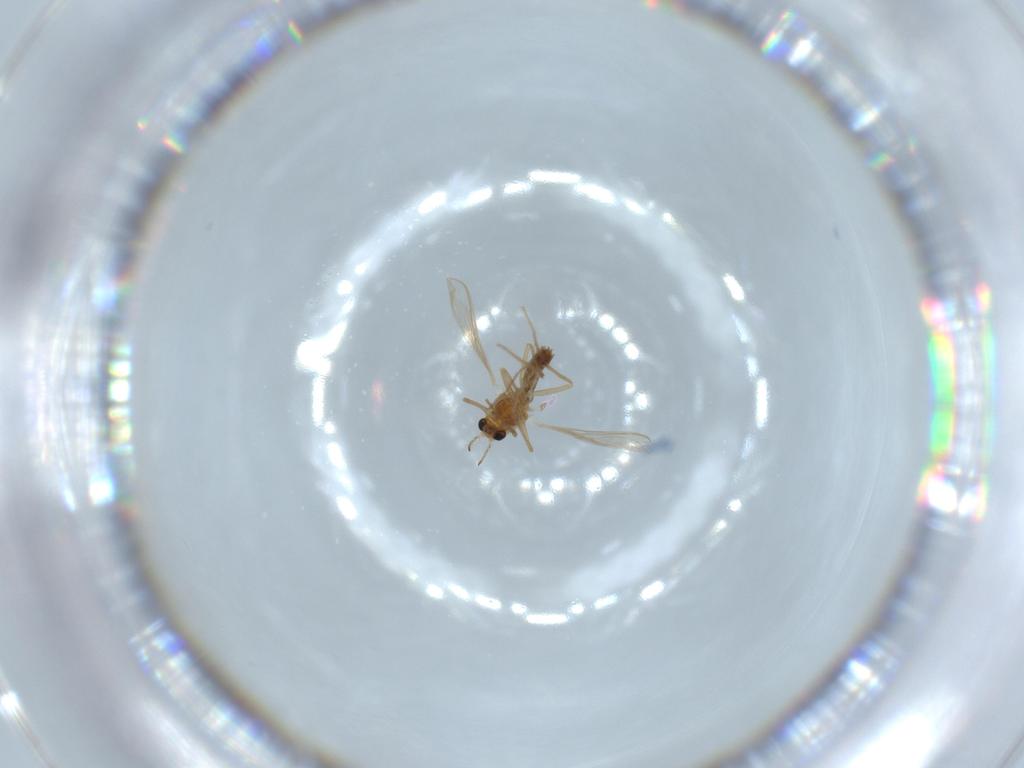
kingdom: Animalia
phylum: Arthropoda
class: Insecta
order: Diptera
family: Chironomidae
